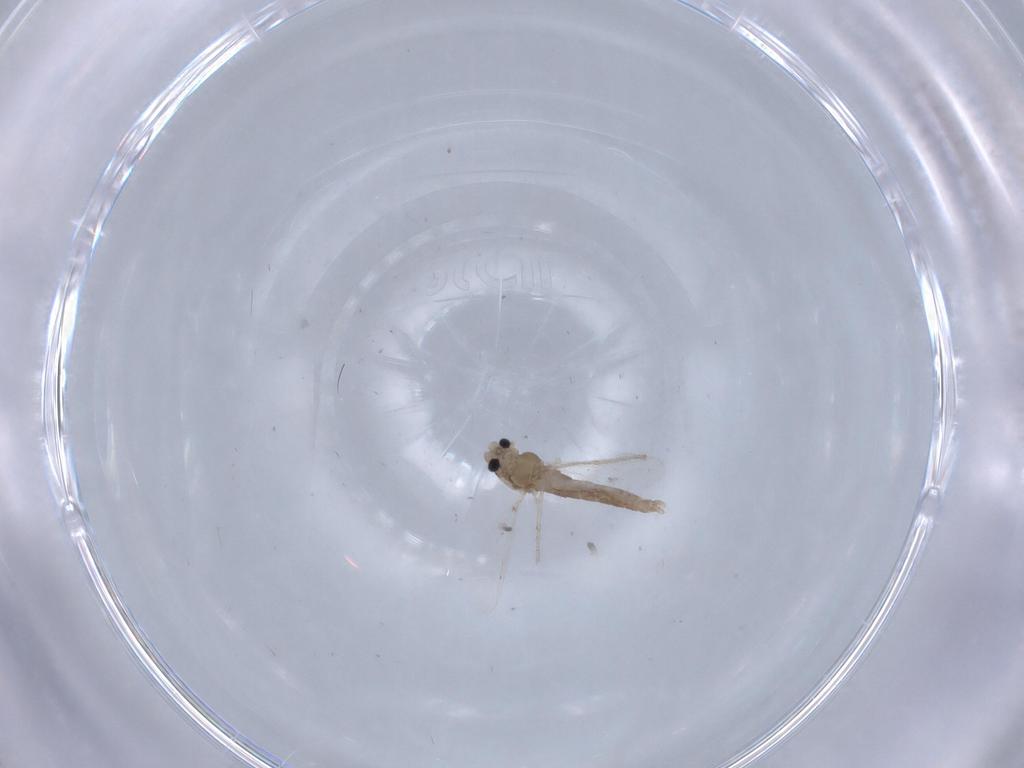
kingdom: Animalia
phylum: Arthropoda
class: Insecta
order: Diptera
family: Chironomidae
